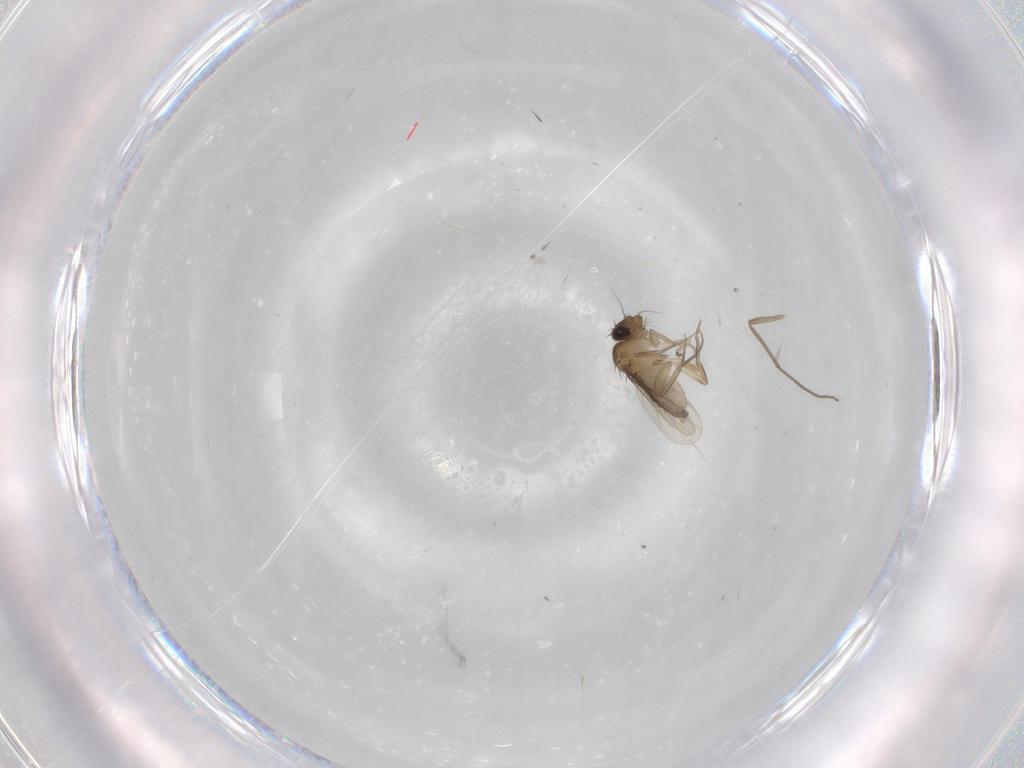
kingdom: Animalia
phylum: Arthropoda
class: Insecta
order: Diptera
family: Phoridae
